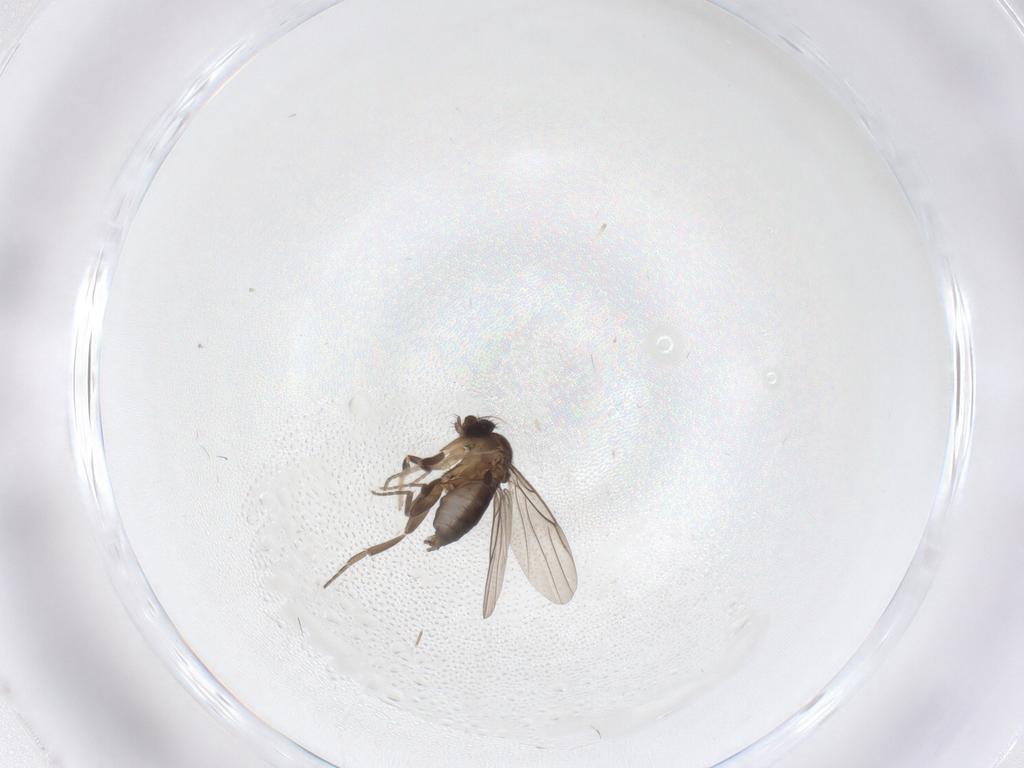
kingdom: Animalia
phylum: Arthropoda
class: Insecta
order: Diptera
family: Phoridae
